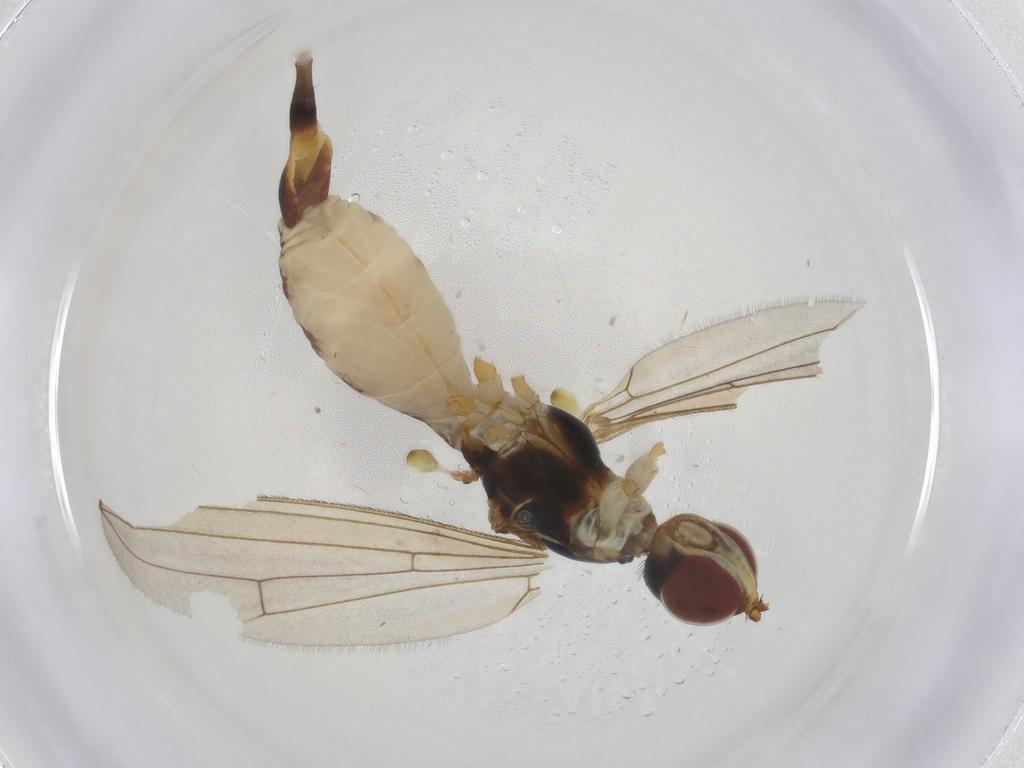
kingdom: Animalia
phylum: Arthropoda
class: Insecta
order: Diptera
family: Micropezidae
